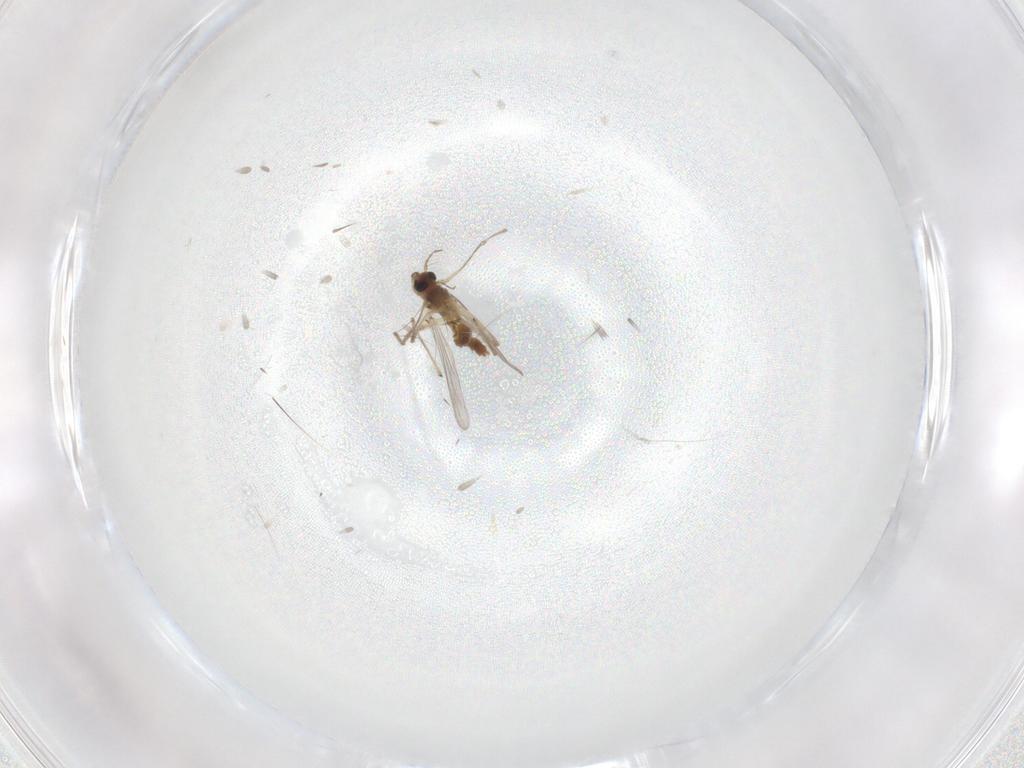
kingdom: Animalia
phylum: Arthropoda
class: Insecta
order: Diptera
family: Chironomidae
